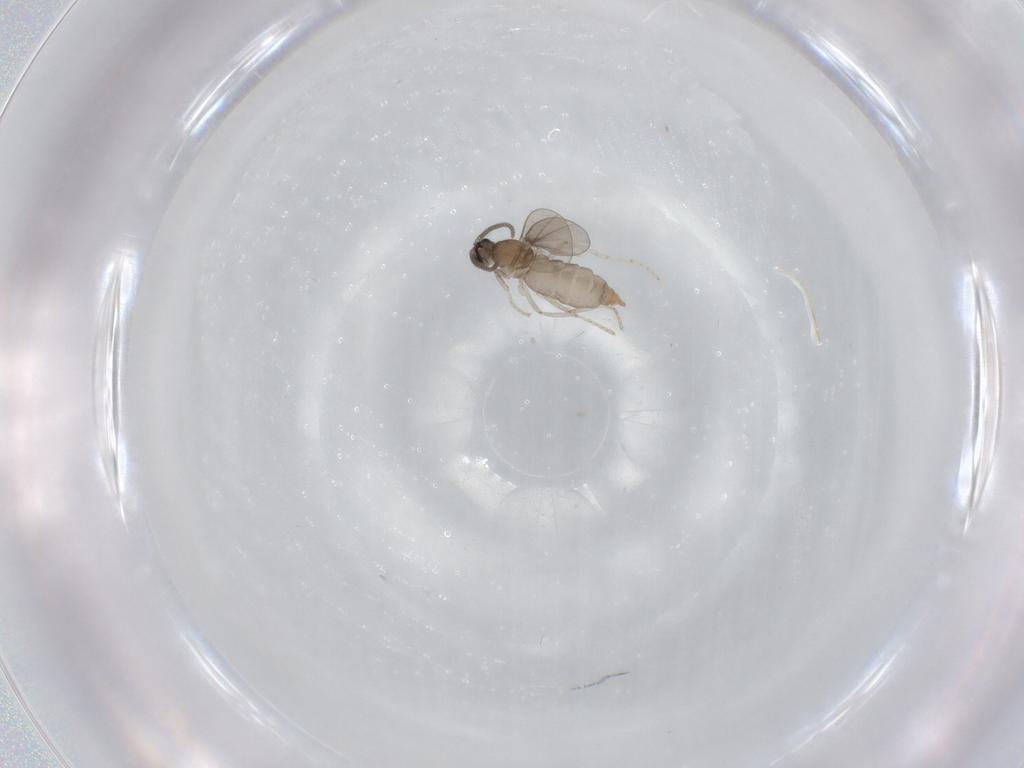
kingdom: Animalia
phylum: Arthropoda
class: Insecta
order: Diptera
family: Cecidomyiidae
